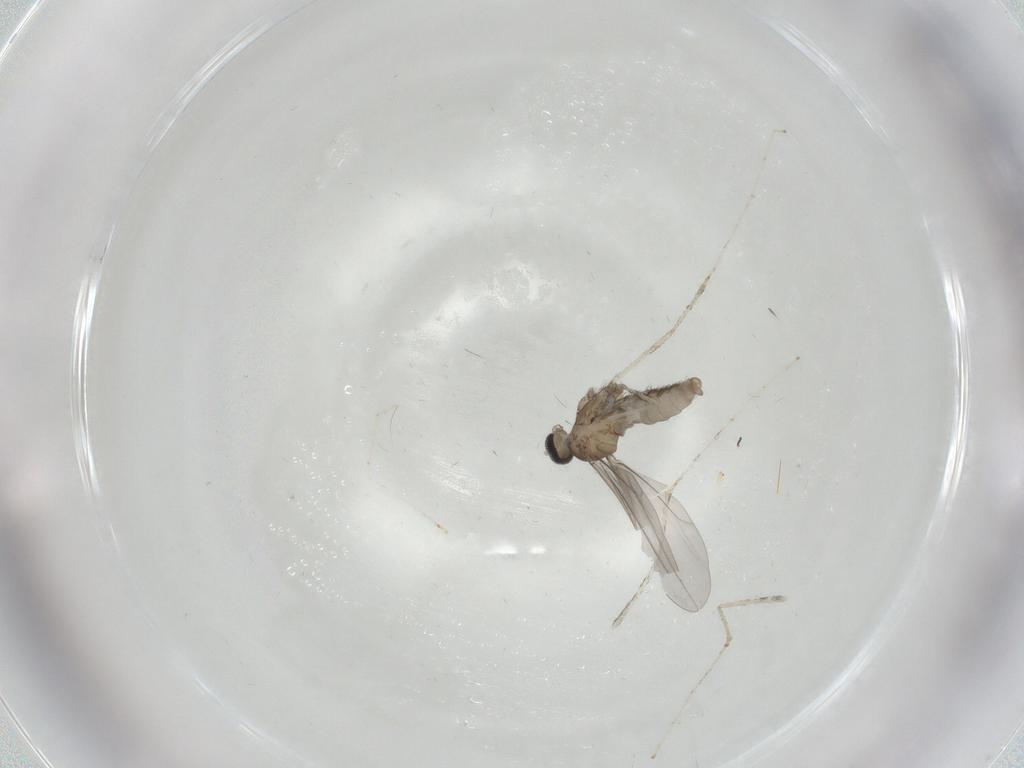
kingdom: Animalia
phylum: Arthropoda
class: Insecta
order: Diptera
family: Cecidomyiidae
